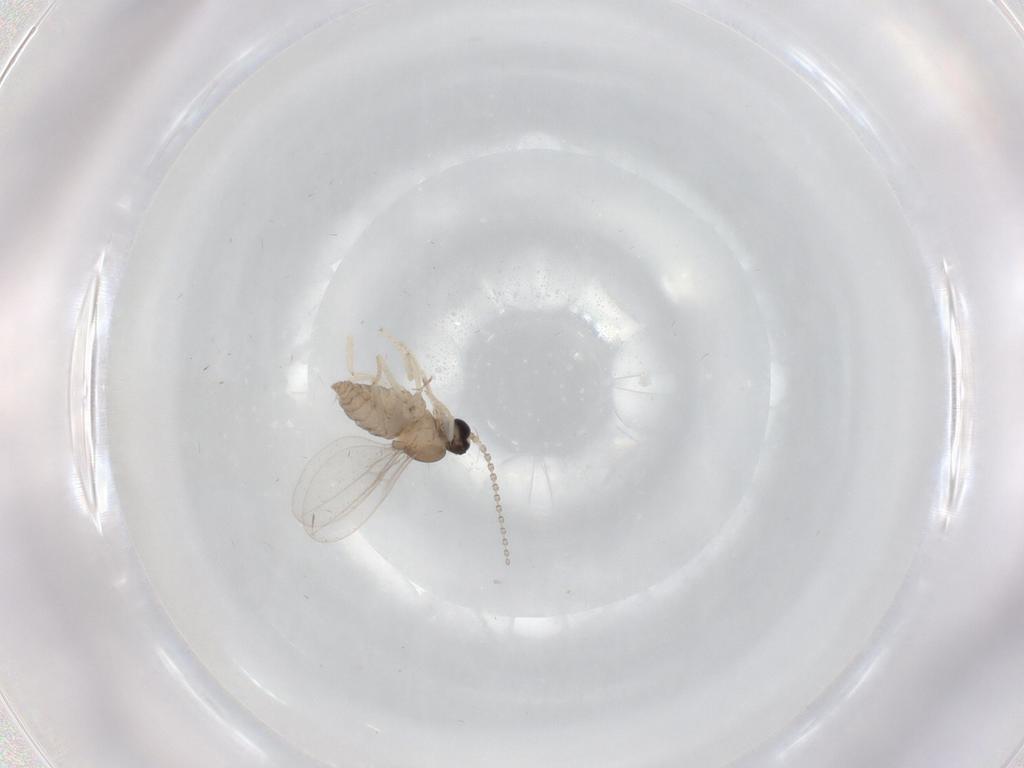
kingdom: Animalia
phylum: Arthropoda
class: Insecta
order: Diptera
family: Cecidomyiidae
